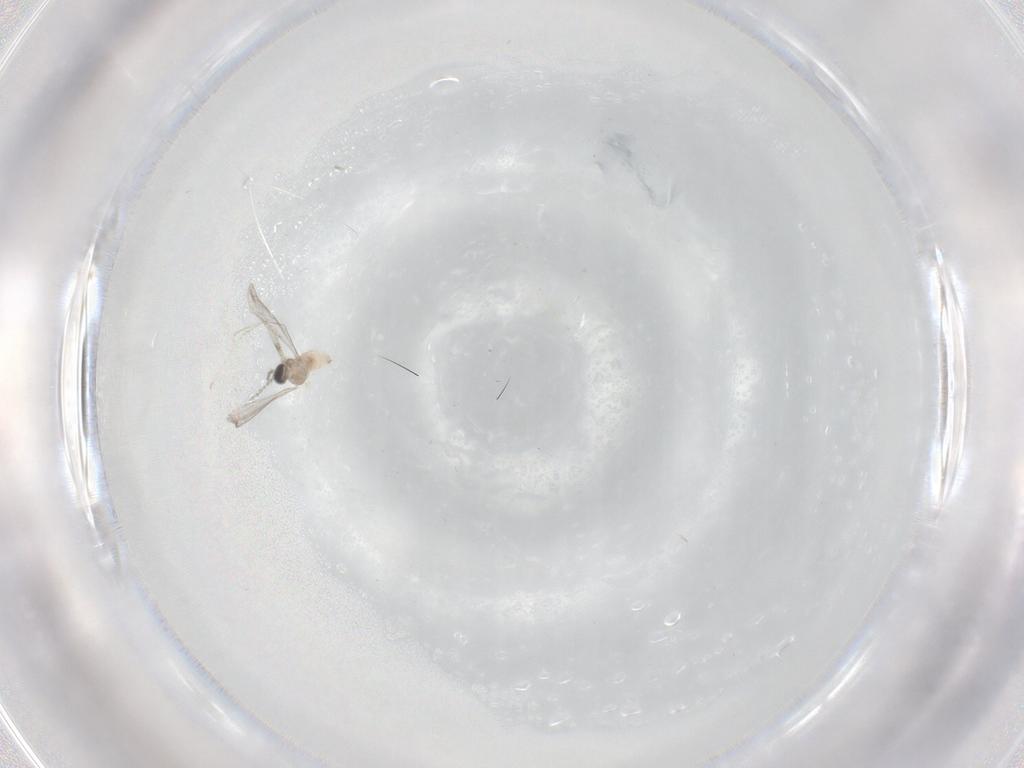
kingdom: Animalia
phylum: Arthropoda
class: Insecta
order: Diptera
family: Cecidomyiidae
